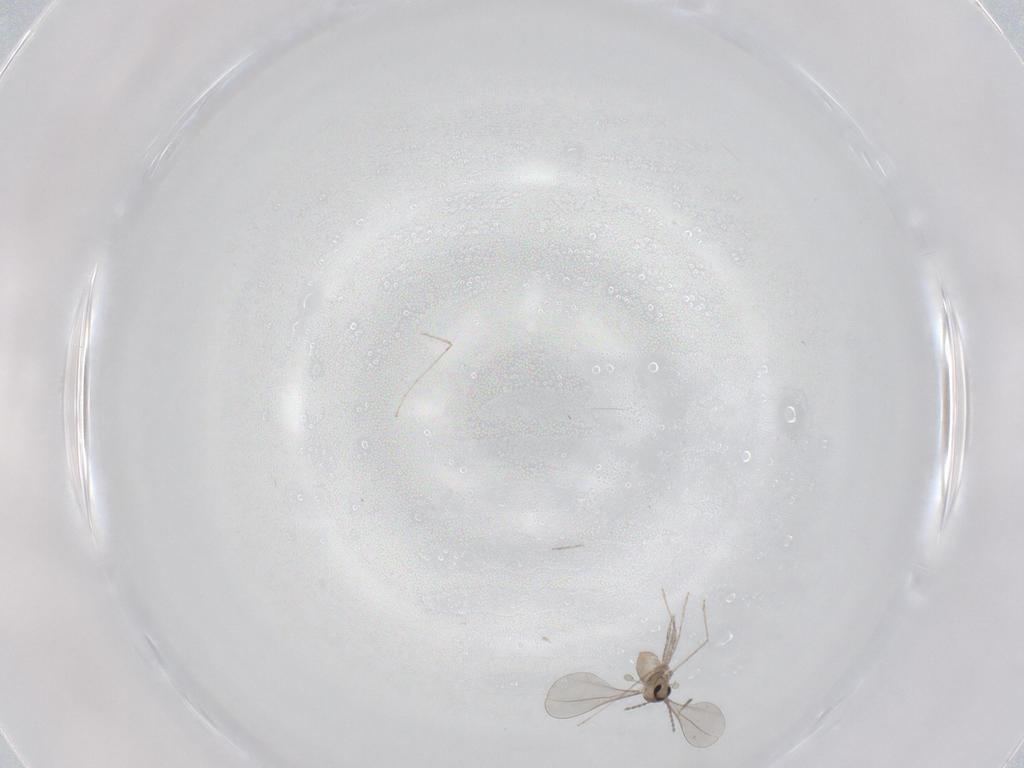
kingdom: Animalia
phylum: Arthropoda
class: Insecta
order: Diptera
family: Cecidomyiidae
